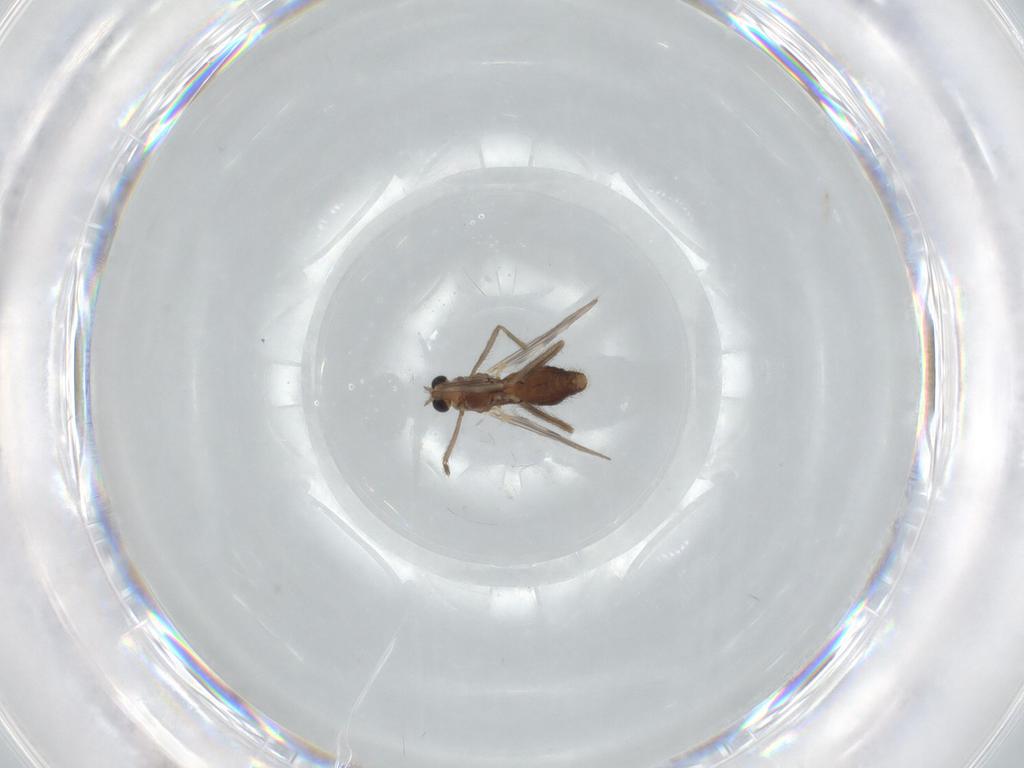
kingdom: Animalia
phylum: Arthropoda
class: Insecta
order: Diptera
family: Chironomidae
